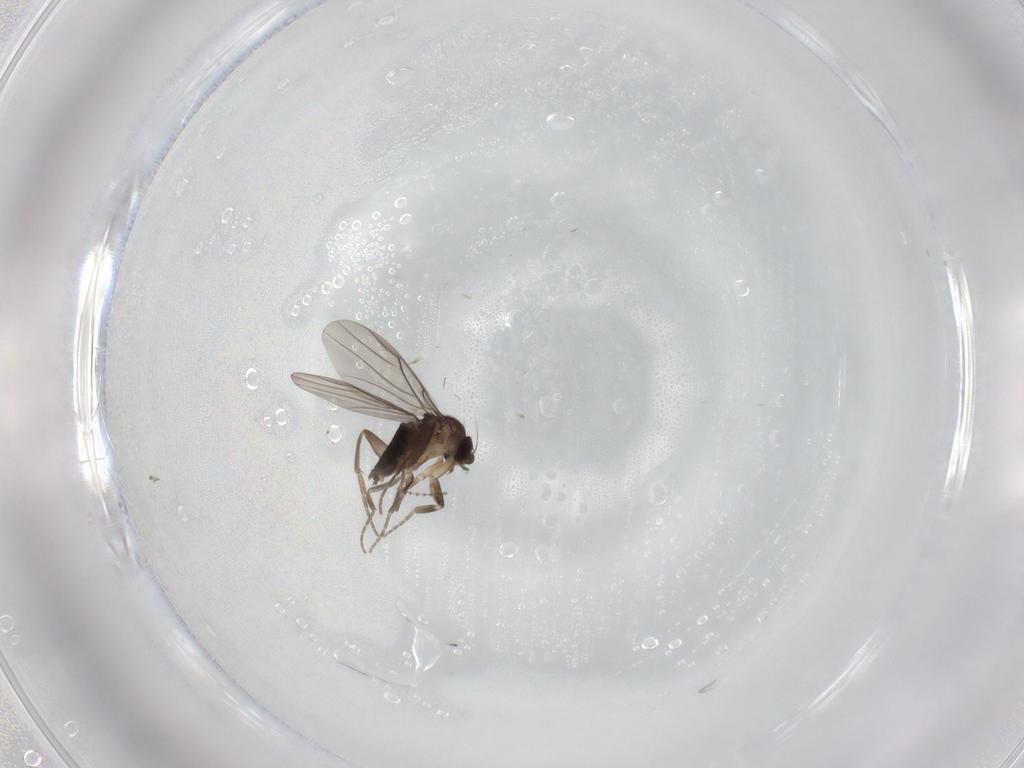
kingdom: Animalia
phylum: Arthropoda
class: Insecta
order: Diptera
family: Phoridae
